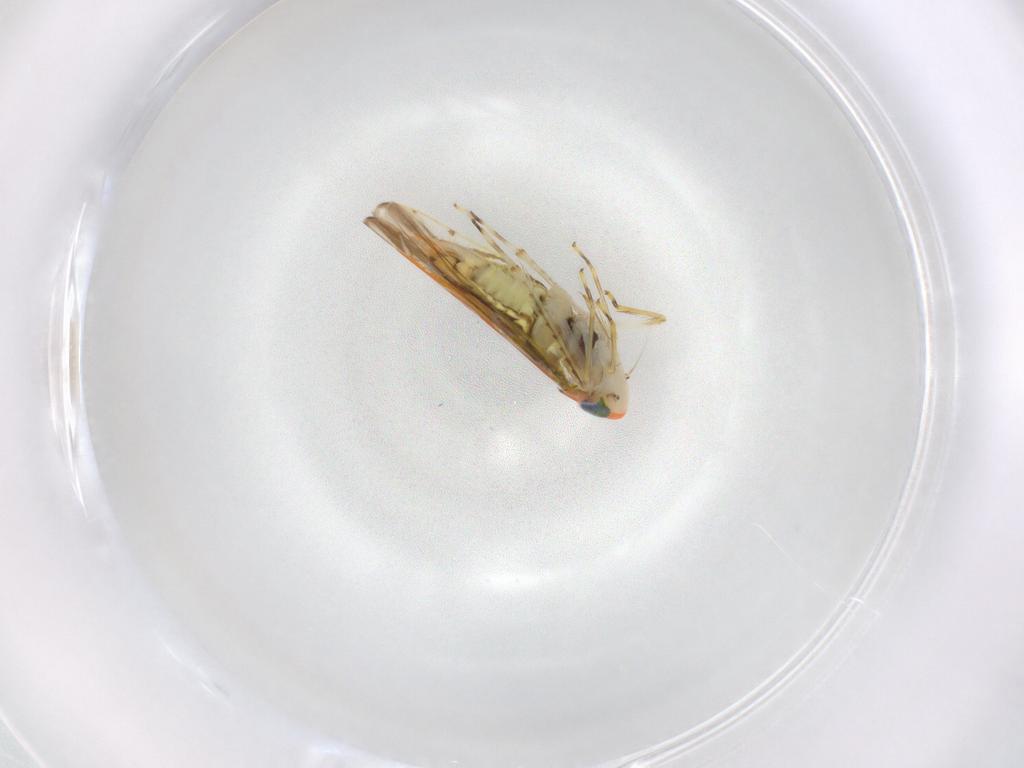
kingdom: Animalia
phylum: Arthropoda
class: Insecta
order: Hemiptera
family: Cicadellidae
